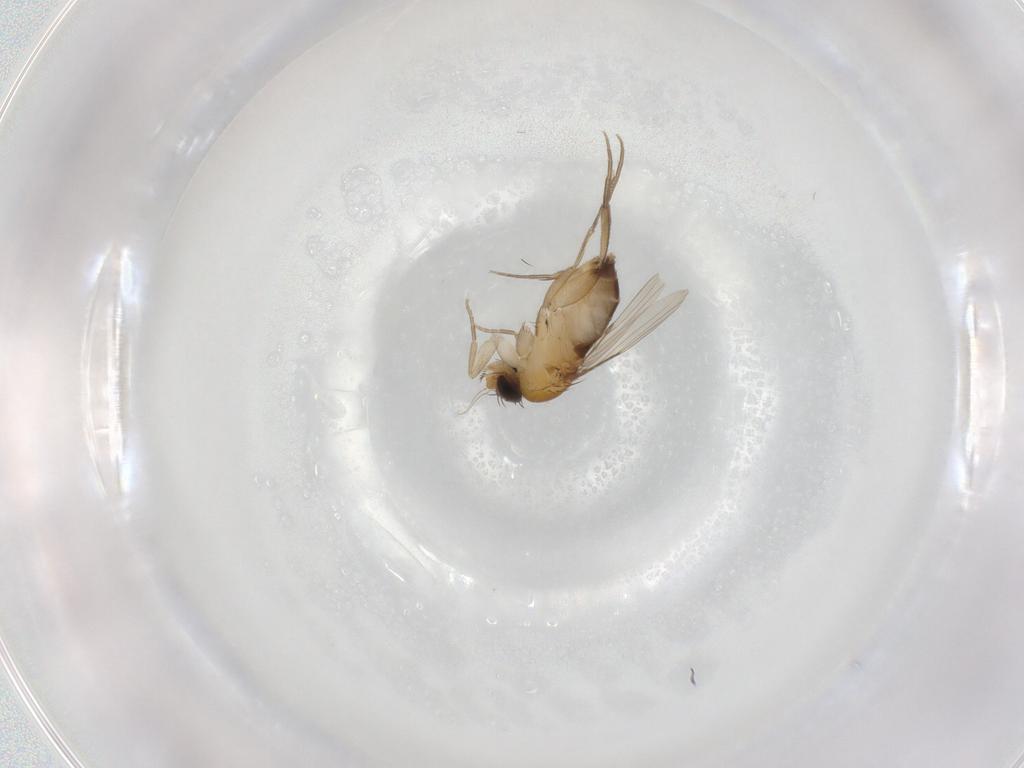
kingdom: Animalia
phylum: Arthropoda
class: Insecta
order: Diptera
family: Phoridae
